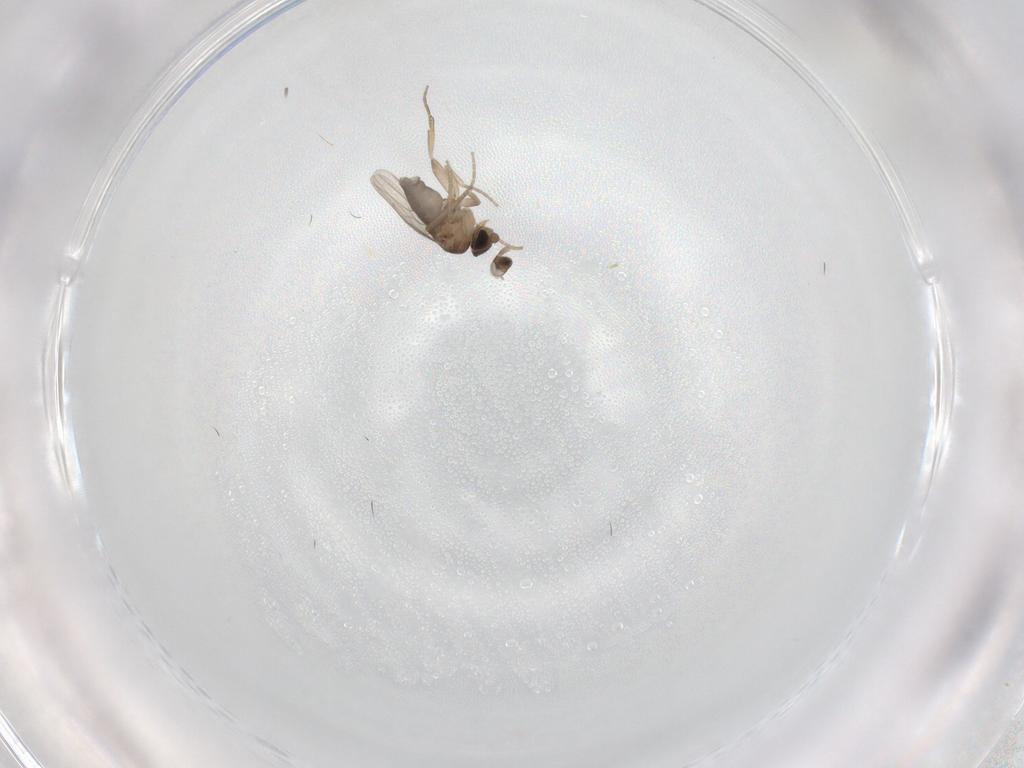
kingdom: Animalia
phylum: Arthropoda
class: Insecta
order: Diptera
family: Phoridae
